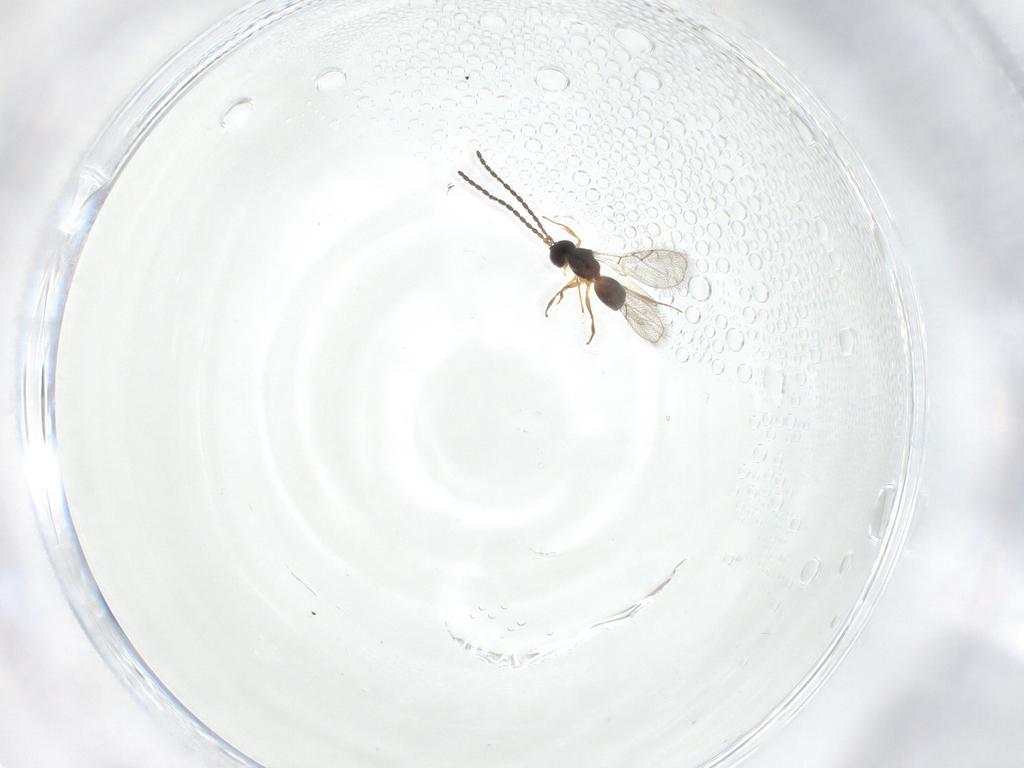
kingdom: Animalia
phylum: Arthropoda
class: Insecta
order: Hymenoptera
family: Figitidae
